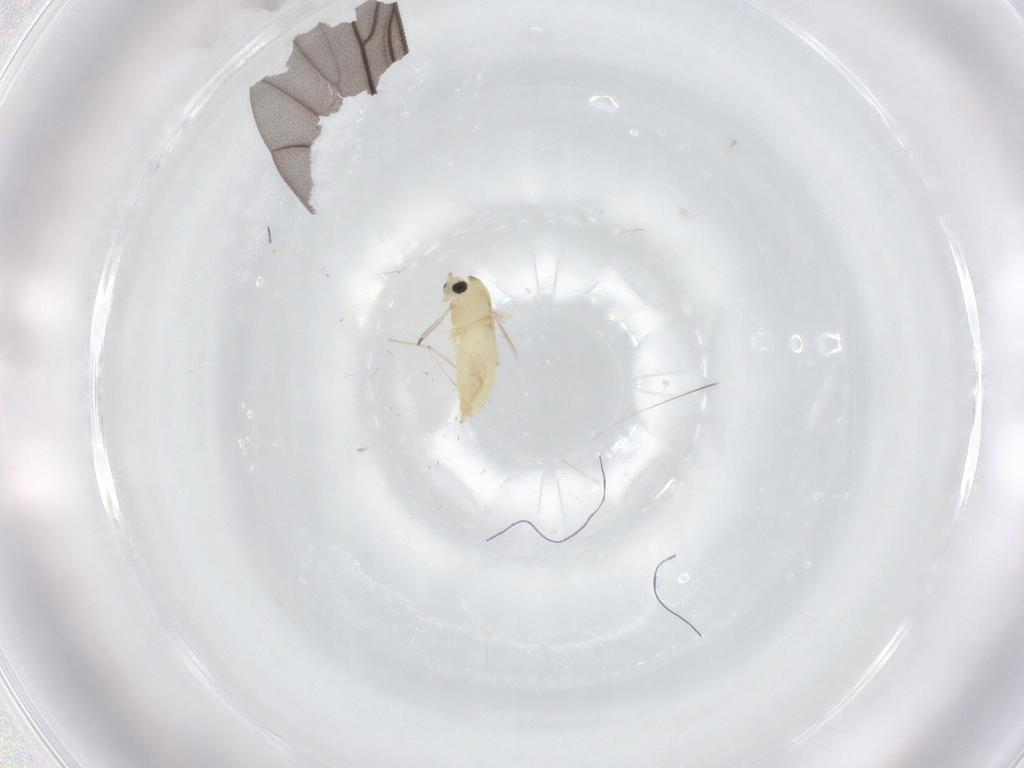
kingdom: Animalia
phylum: Arthropoda
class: Insecta
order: Diptera
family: Chironomidae
